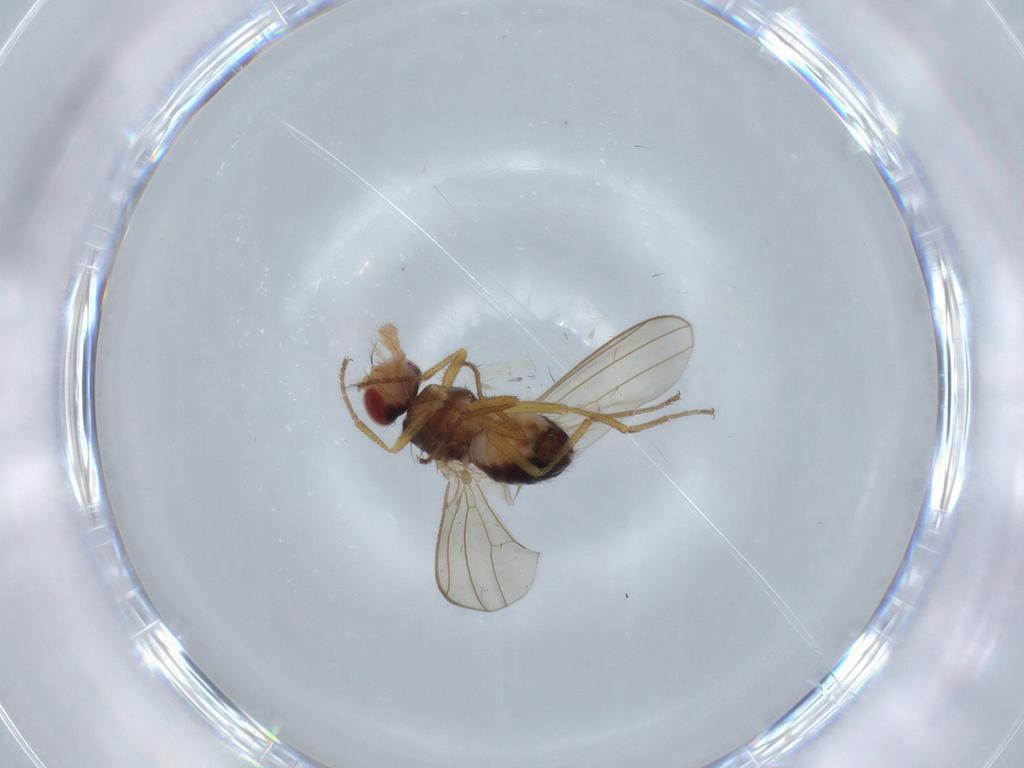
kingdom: Animalia
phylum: Arthropoda
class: Insecta
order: Diptera
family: Drosophilidae
